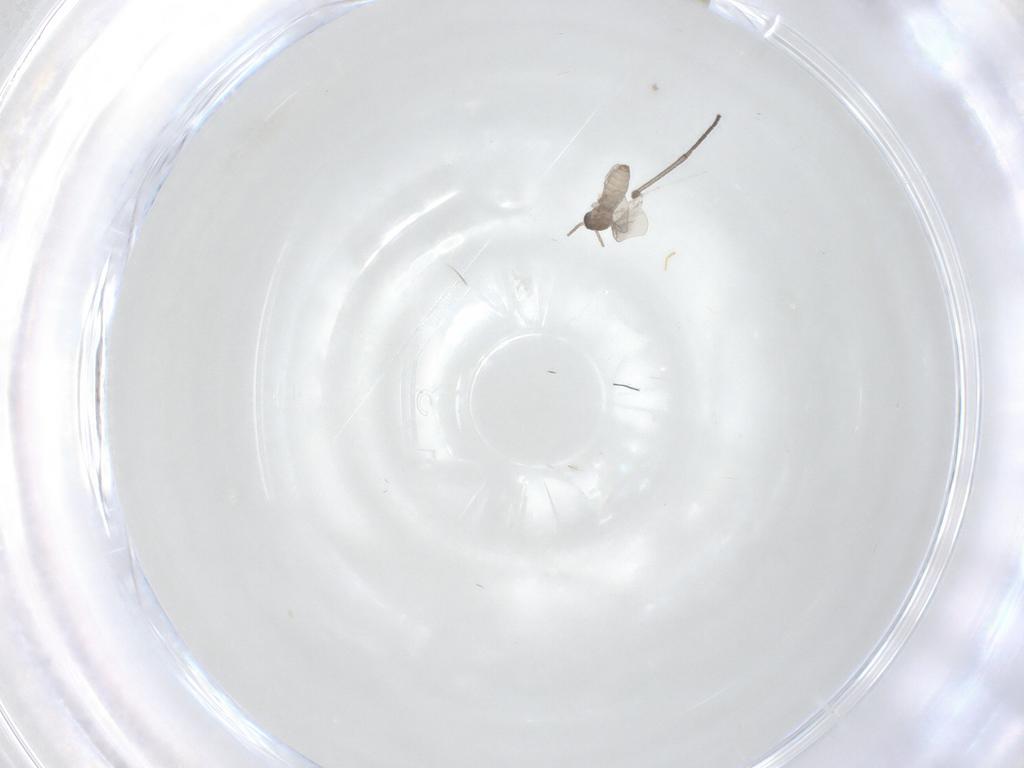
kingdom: Animalia
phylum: Arthropoda
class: Insecta
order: Diptera
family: Cecidomyiidae
